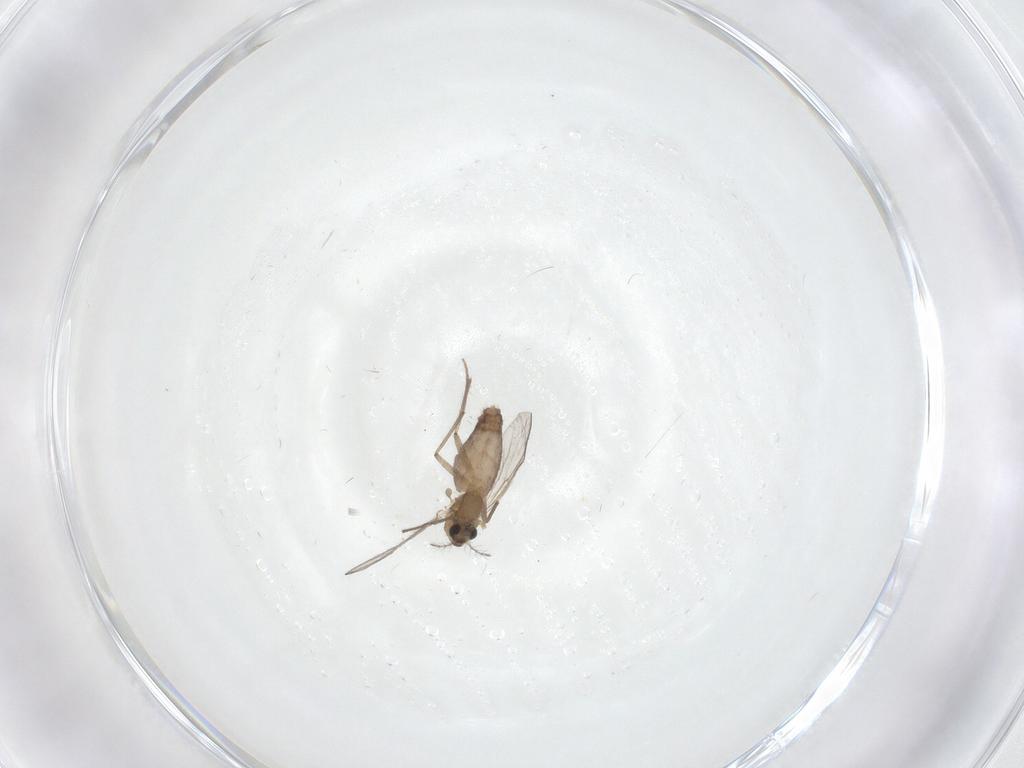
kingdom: Animalia
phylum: Arthropoda
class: Insecta
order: Diptera
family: Chironomidae
